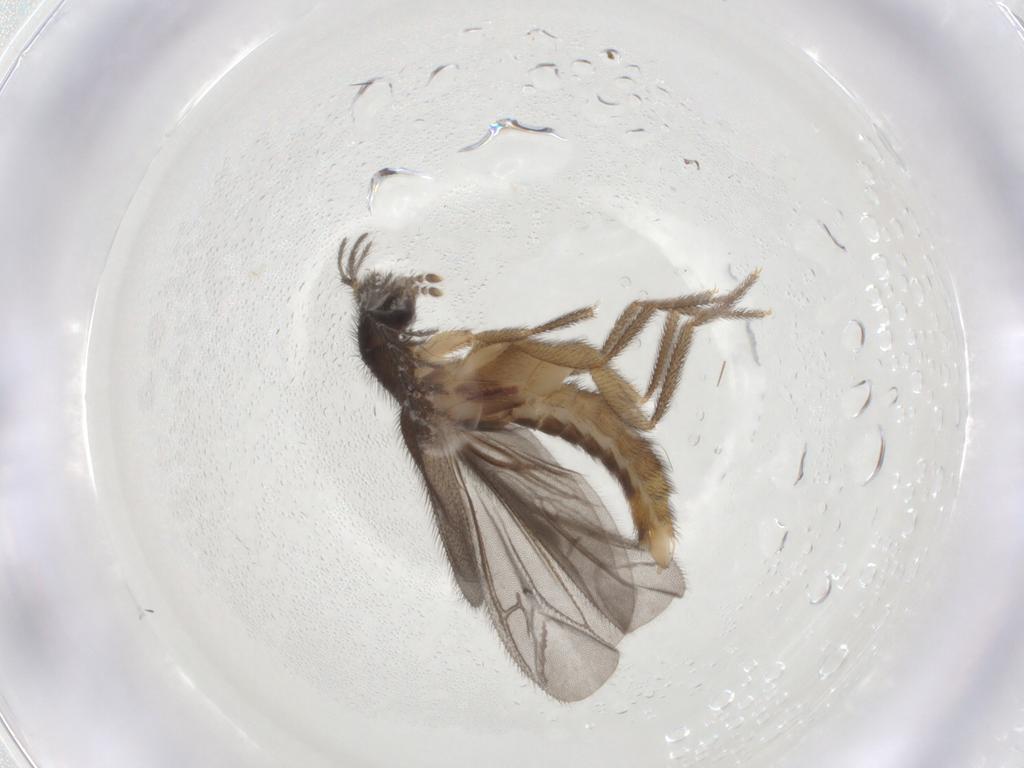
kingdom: Animalia
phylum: Arthropoda
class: Insecta
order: Coleoptera
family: Phengodidae
